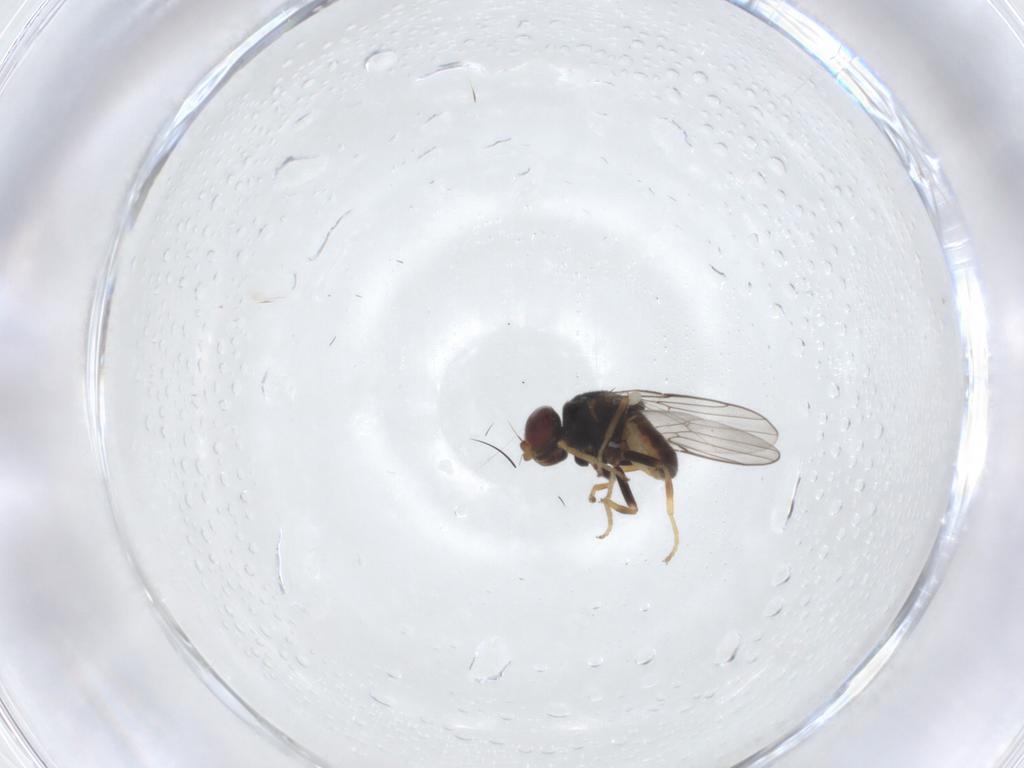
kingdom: Animalia
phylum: Arthropoda
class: Insecta
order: Diptera
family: Chloropidae
